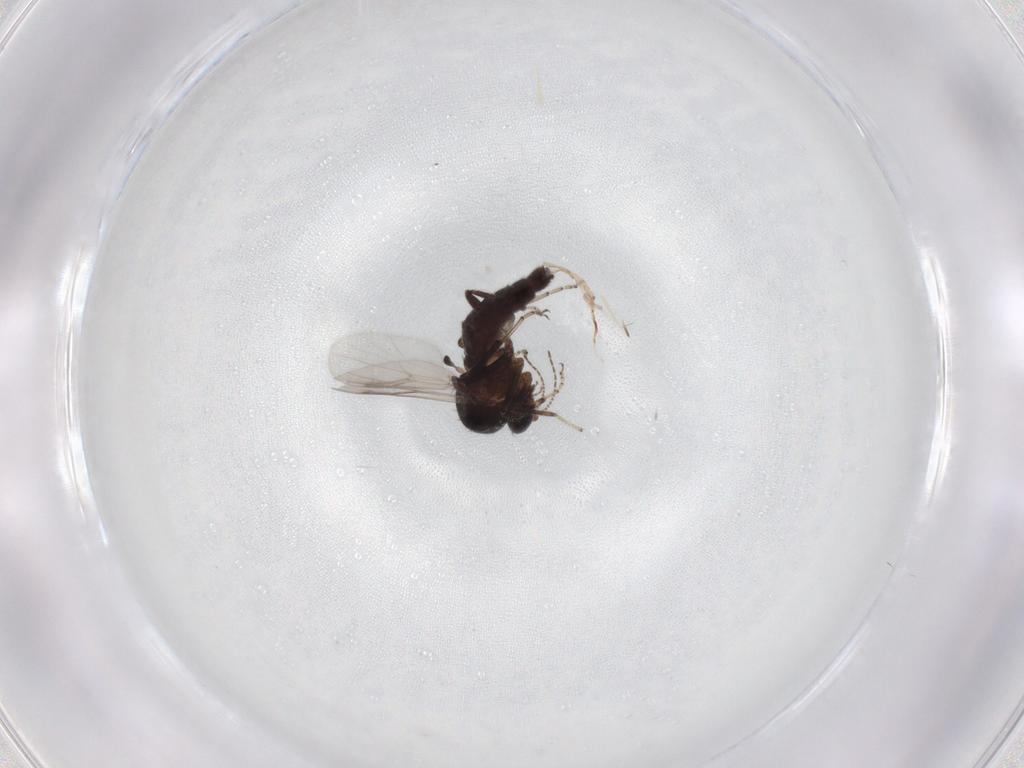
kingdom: Animalia
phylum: Arthropoda
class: Insecta
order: Diptera
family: Ceratopogonidae
